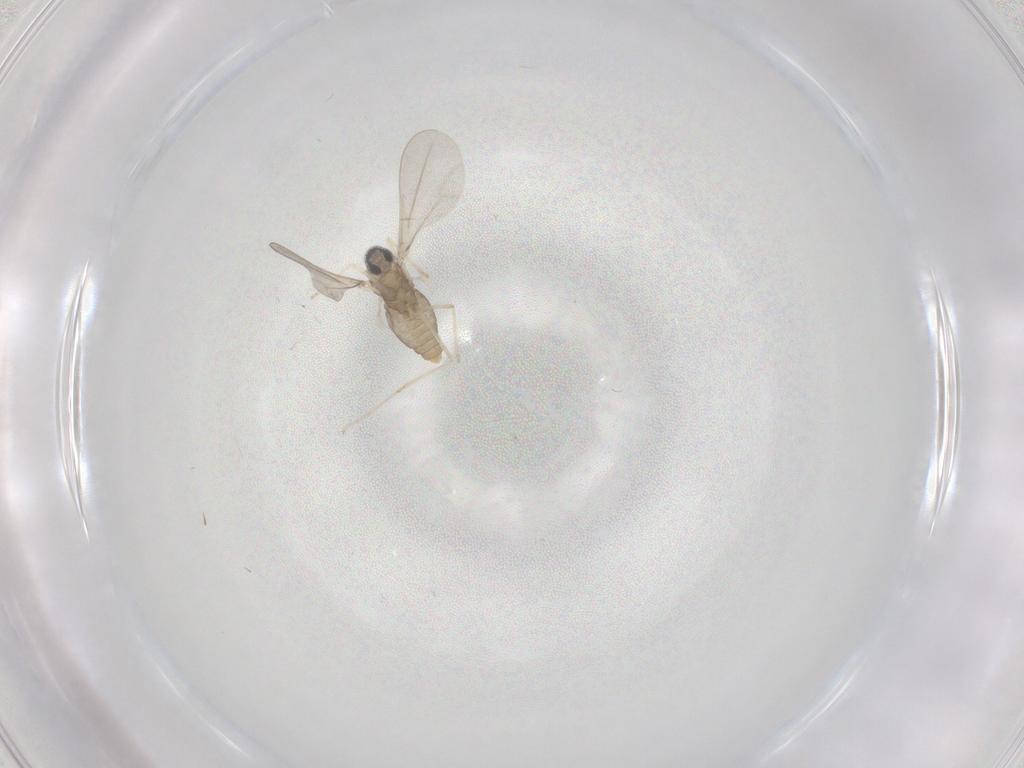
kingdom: Animalia
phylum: Arthropoda
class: Insecta
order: Diptera
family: Cecidomyiidae
